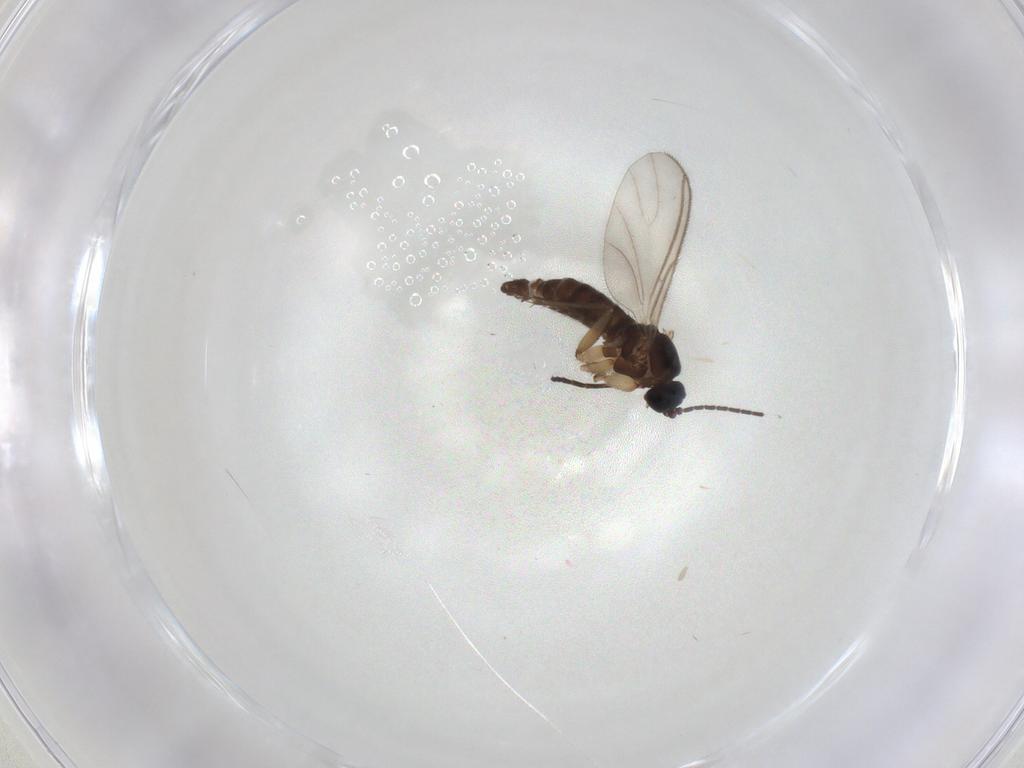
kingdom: Animalia
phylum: Arthropoda
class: Insecta
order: Diptera
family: Sciaridae
